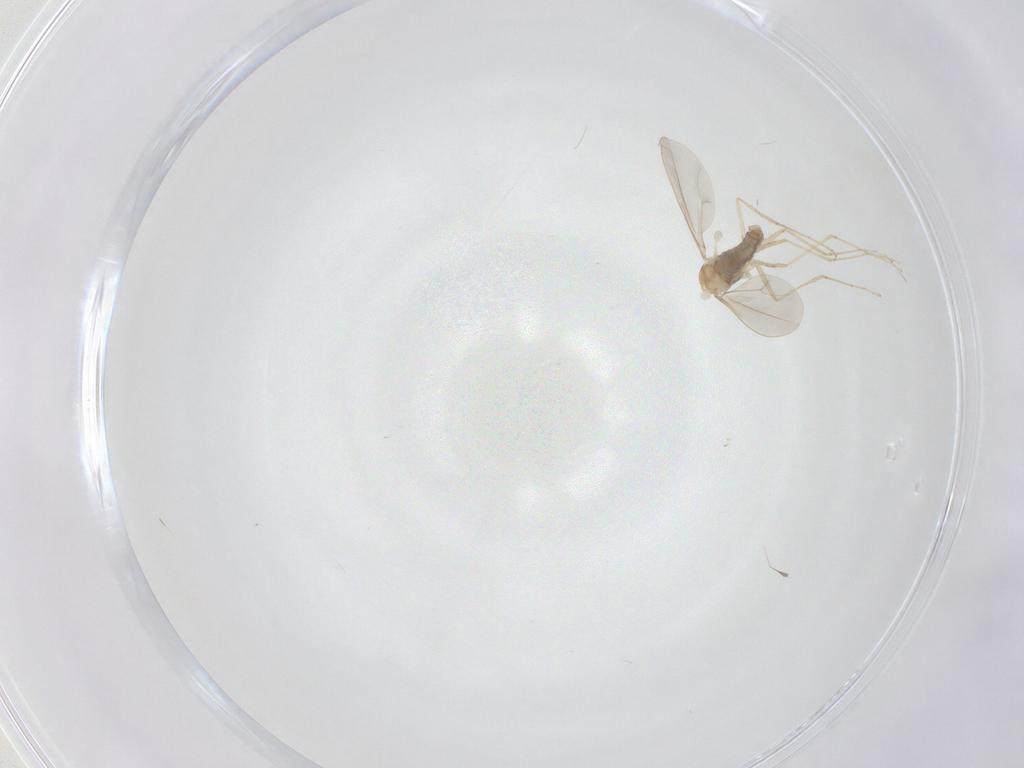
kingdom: Animalia
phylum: Arthropoda
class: Insecta
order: Diptera
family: Cecidomyiidae
